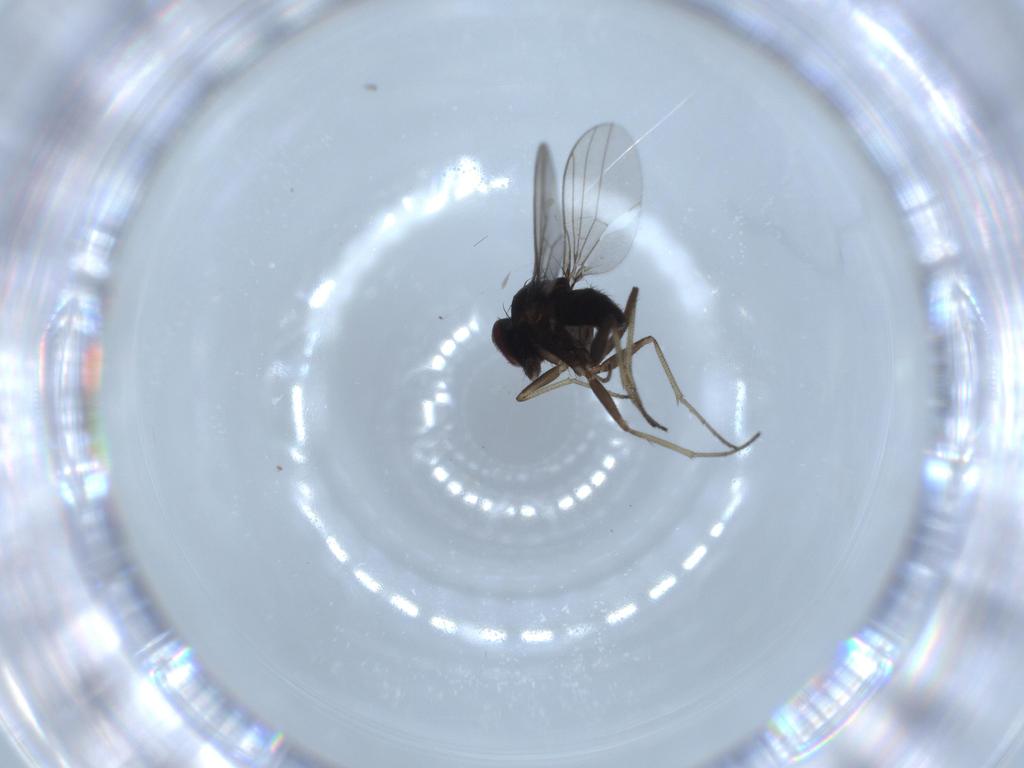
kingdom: Animalia
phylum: Arthropoda
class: Insecta
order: Diptera
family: Dolichopodidae
